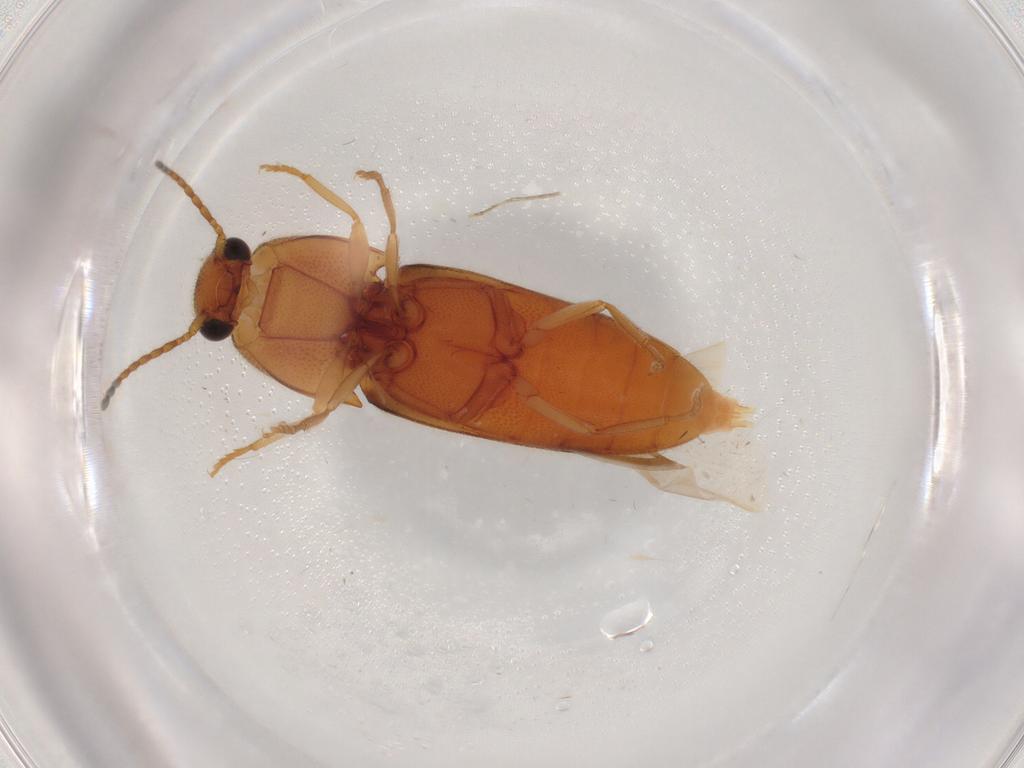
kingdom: Animalia
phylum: Arthropoda
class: Insecta
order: Coleoptera
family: Elateridae
